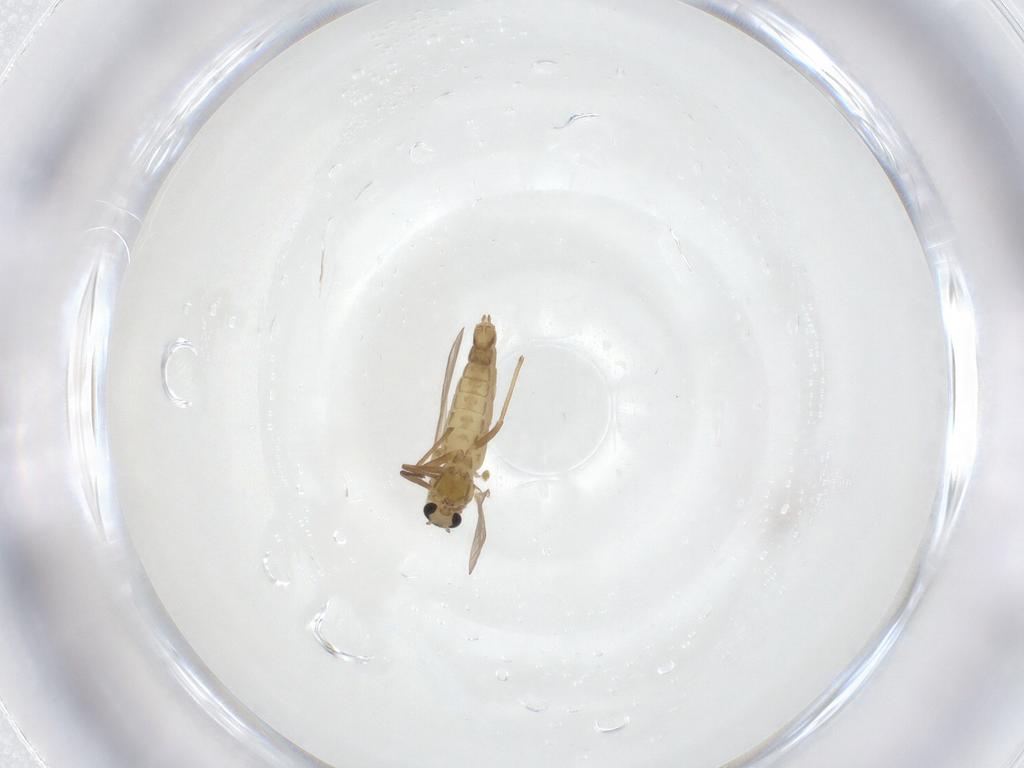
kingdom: Animalia
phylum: Arthropoda
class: Insecta
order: Diptera
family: Chironomidae
